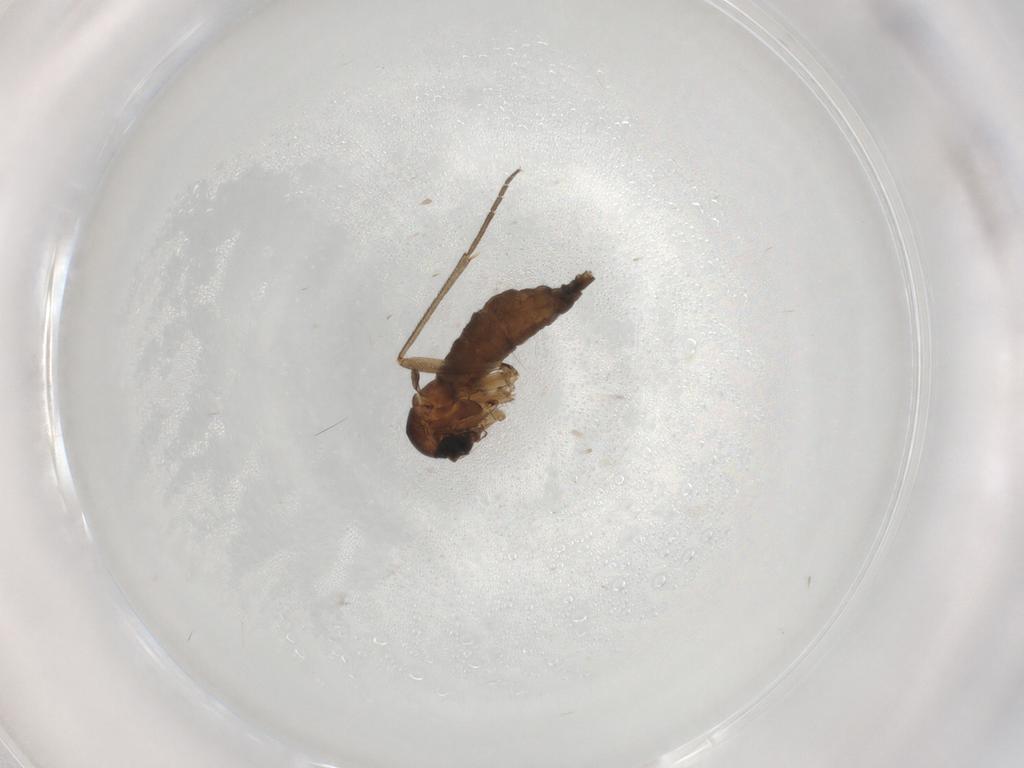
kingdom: Animalia
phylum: Arthropoda
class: Insecta
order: Diptera
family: Sciaridae
